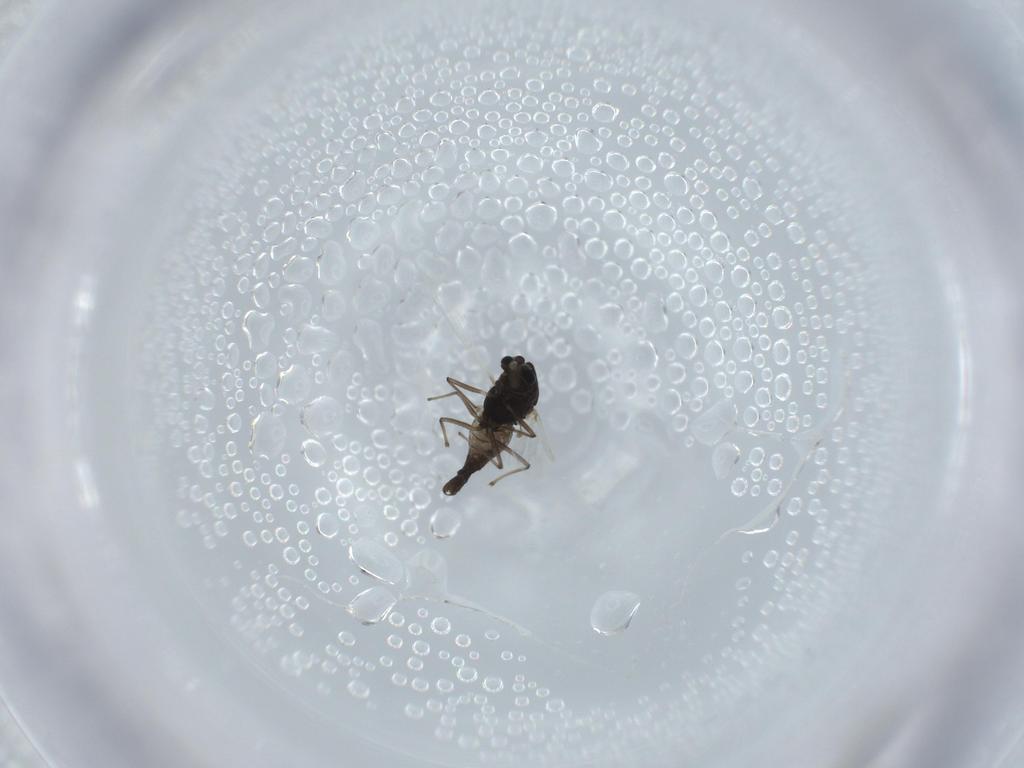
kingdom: Animalia
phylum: Arthropoda
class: Insecta
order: Diptera
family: Chironomidae
